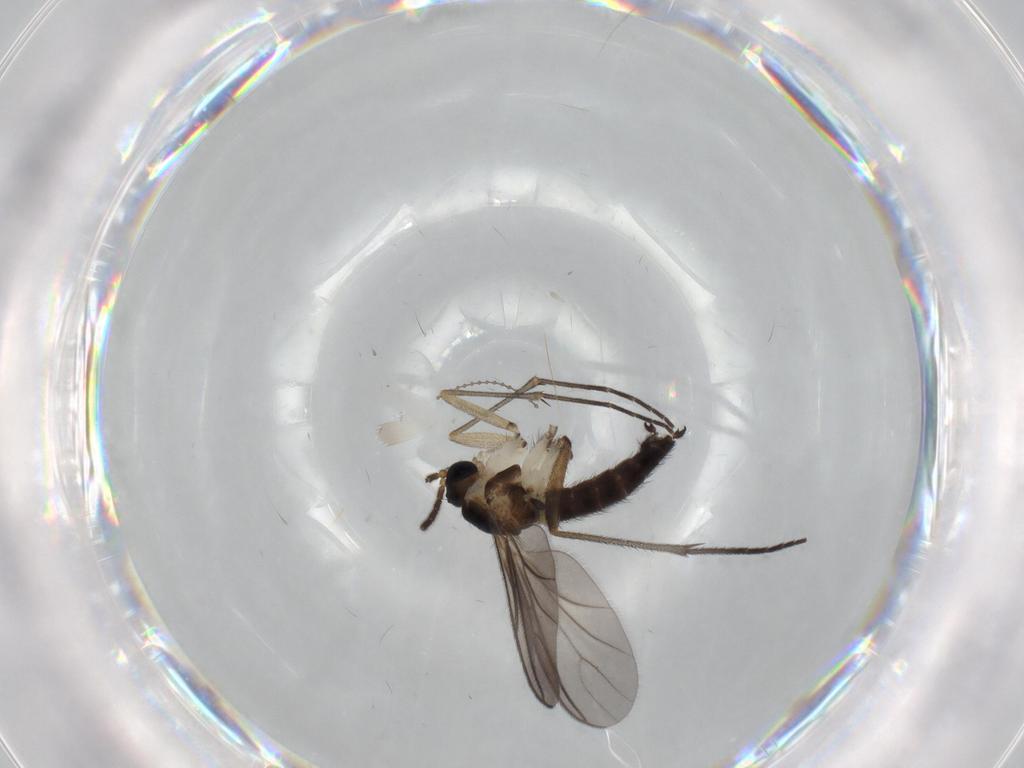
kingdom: Animalia
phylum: Arthropoda
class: Insecta
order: Diptera
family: Sciaridae
